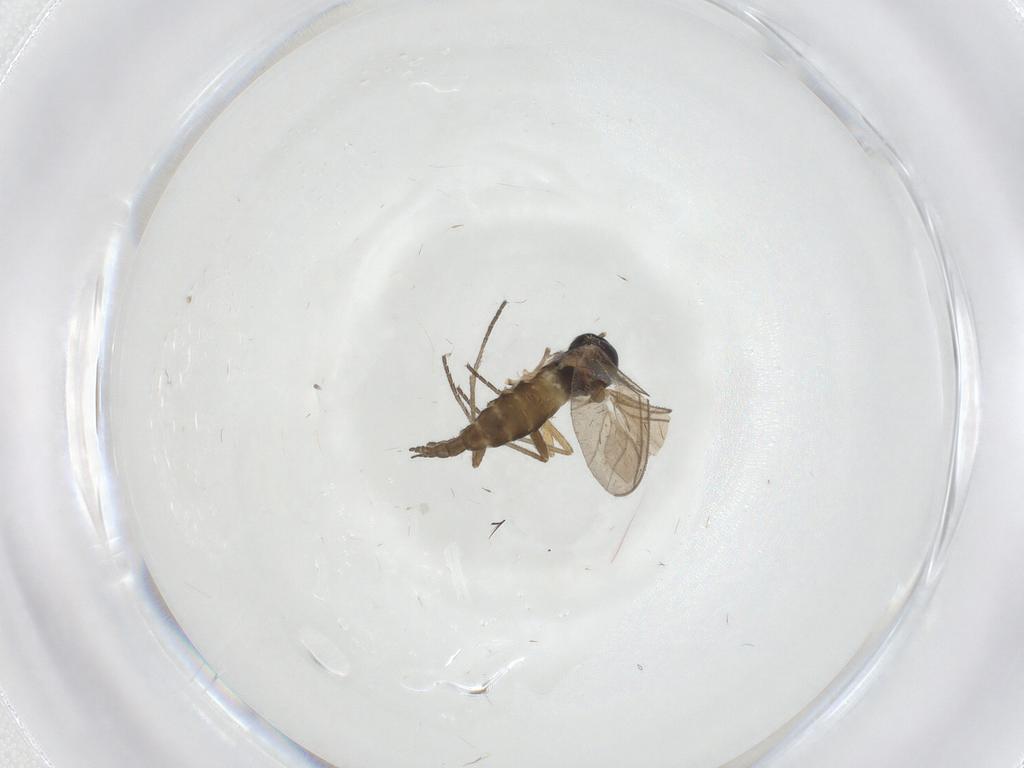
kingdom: Animalia
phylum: Arthropoda
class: Insecta
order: Diptera
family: Sciaridae
